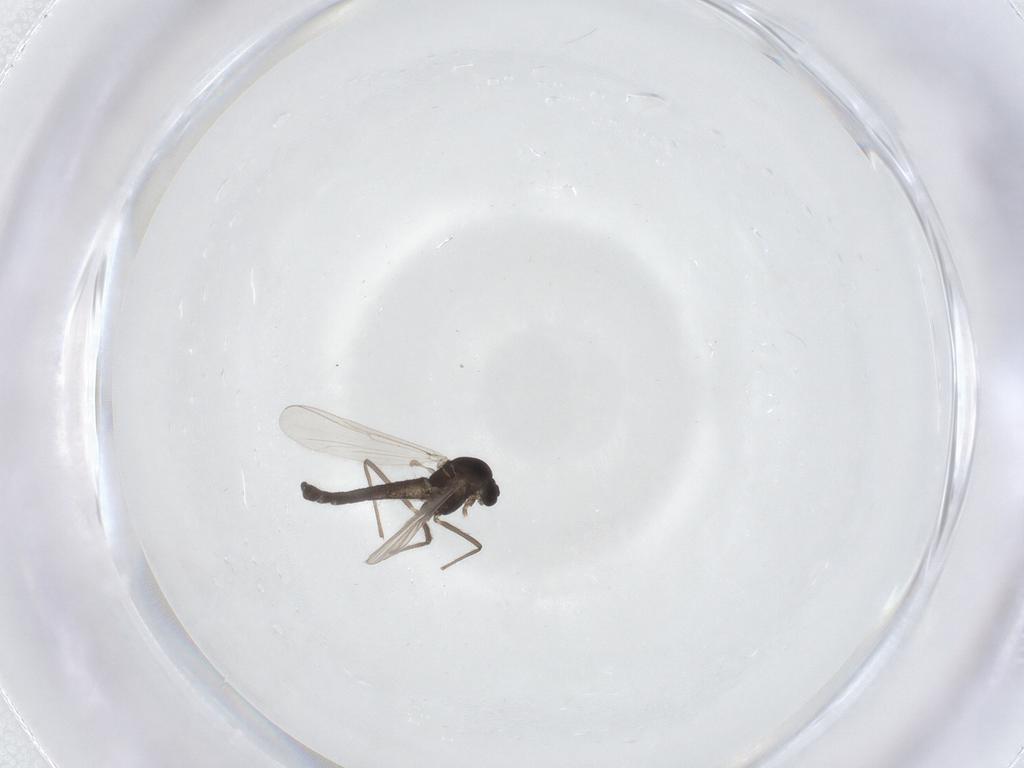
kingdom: Animalia
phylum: Arthropoda
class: Insecta
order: Diptera
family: Chironomidae
